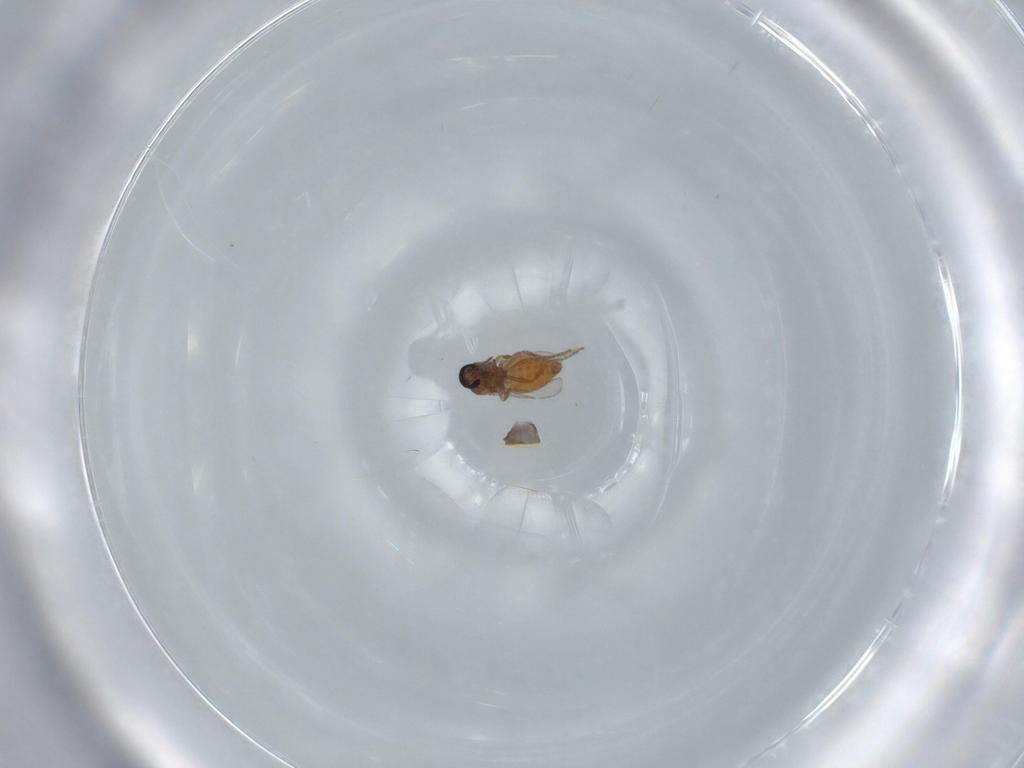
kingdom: Animalia
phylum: Arthropoda
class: Insecta
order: Diptera
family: Ceratopogonidae
